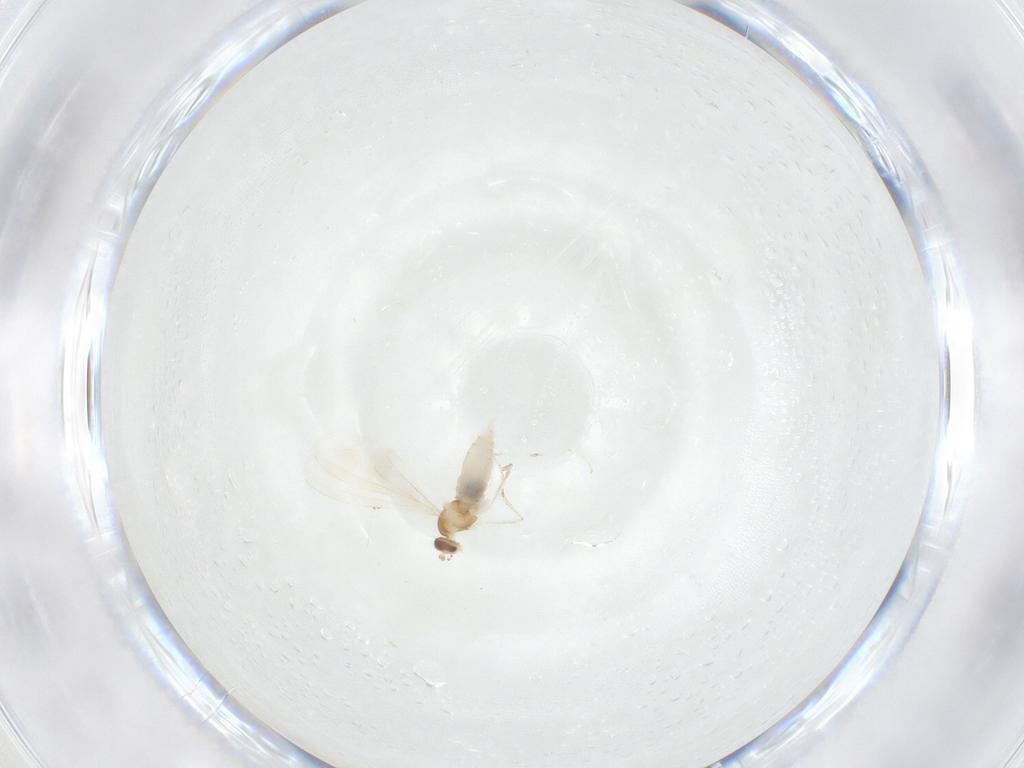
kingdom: Animalia
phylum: Arthropoda
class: Insecta
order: Diptera
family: Cecidomyiidae
